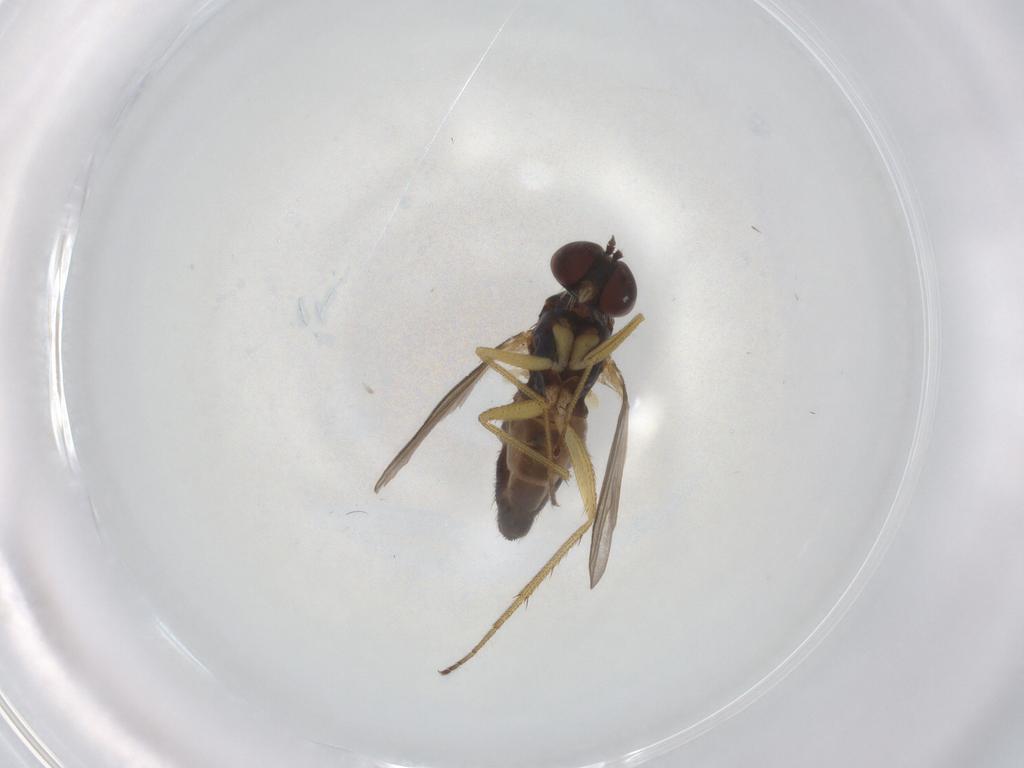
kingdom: Animalia
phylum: Arthropoda
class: Insecta
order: Diptera
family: Dolichopodidae
